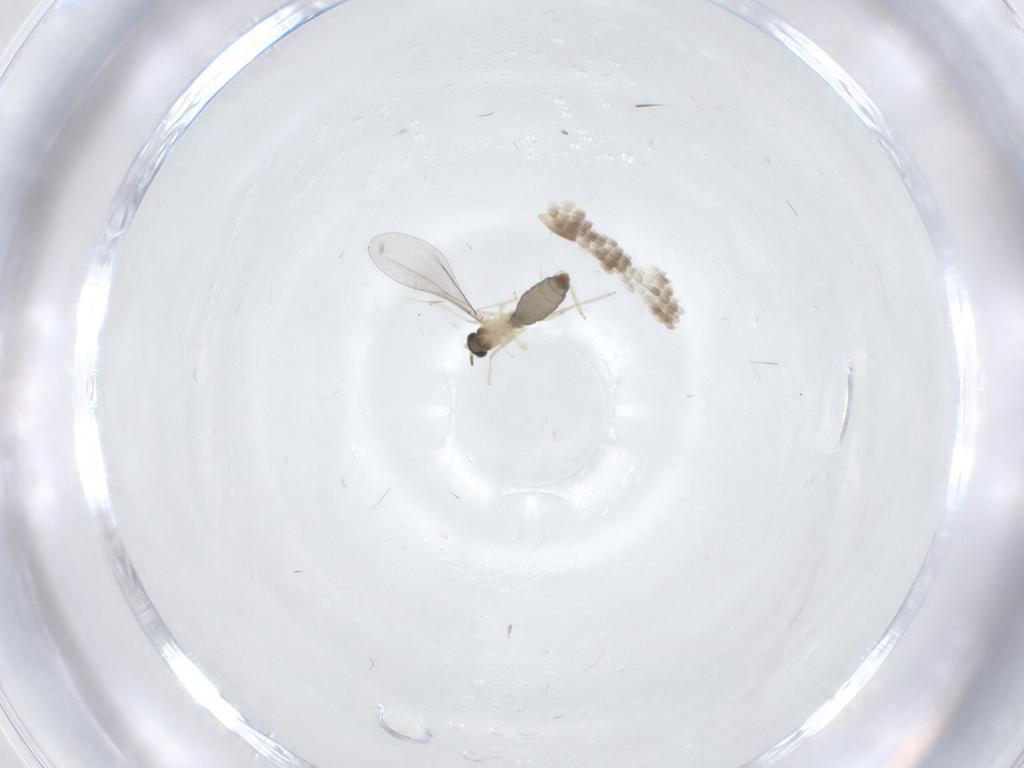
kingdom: Animalia
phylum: Arthropoda
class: Insecta
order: Diptera
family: Cecidomyiidae
